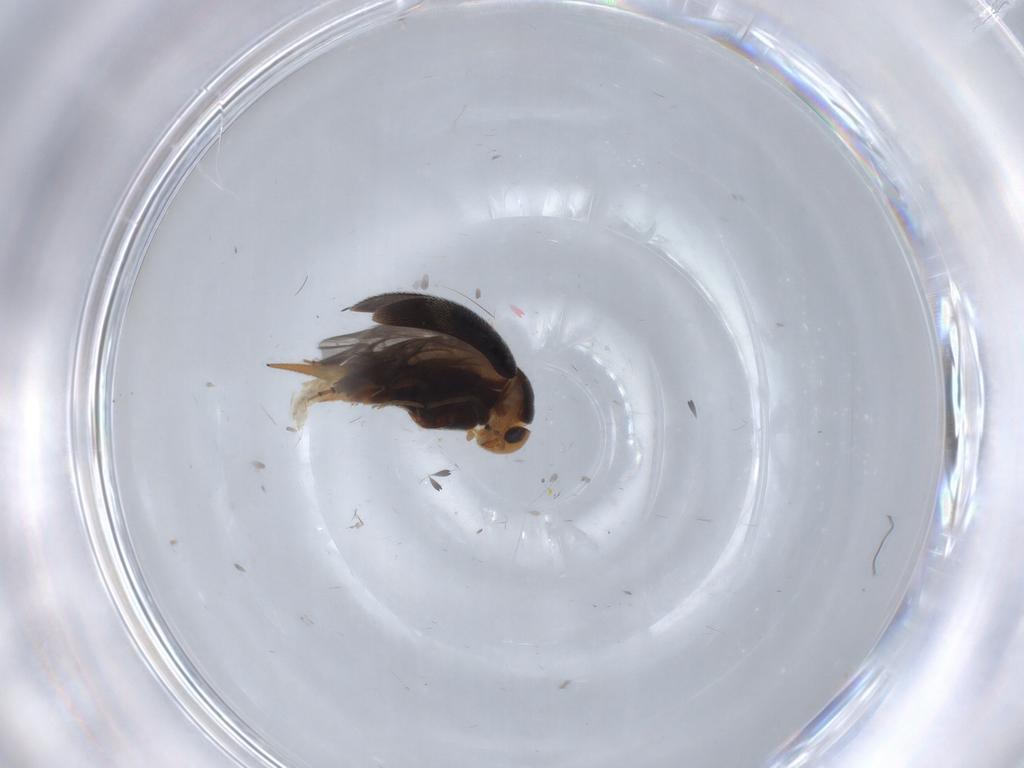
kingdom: Animalia
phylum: Arthropoda
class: Insecta
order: Coleoptera
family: Mordellidae
